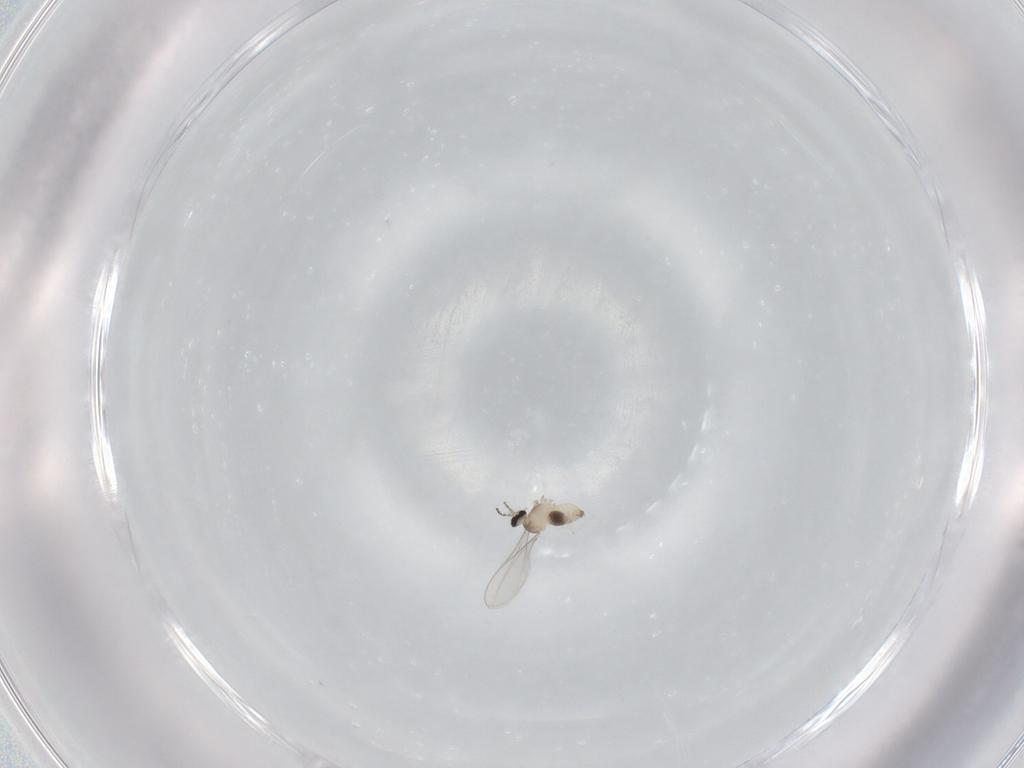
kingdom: Animalia
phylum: Arthropoda
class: Insecta
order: Diptera
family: Cecidomyiidae
